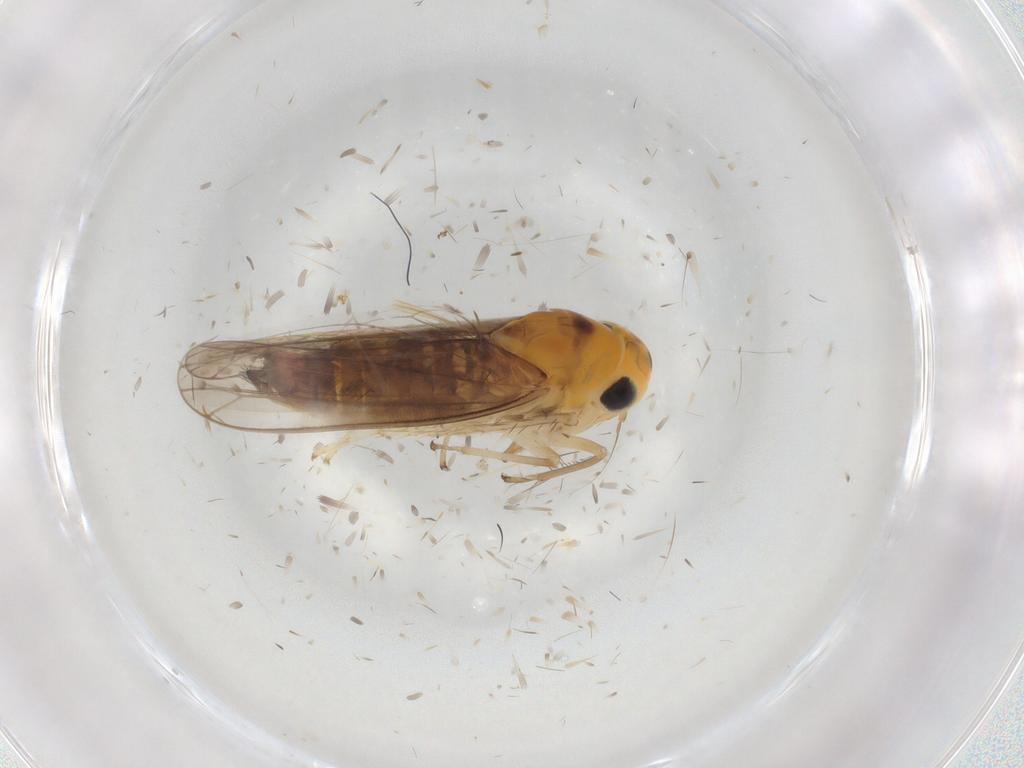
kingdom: Animalia
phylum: Arthropoda
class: Insecta
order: Hemiptera
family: Cicadellidae
